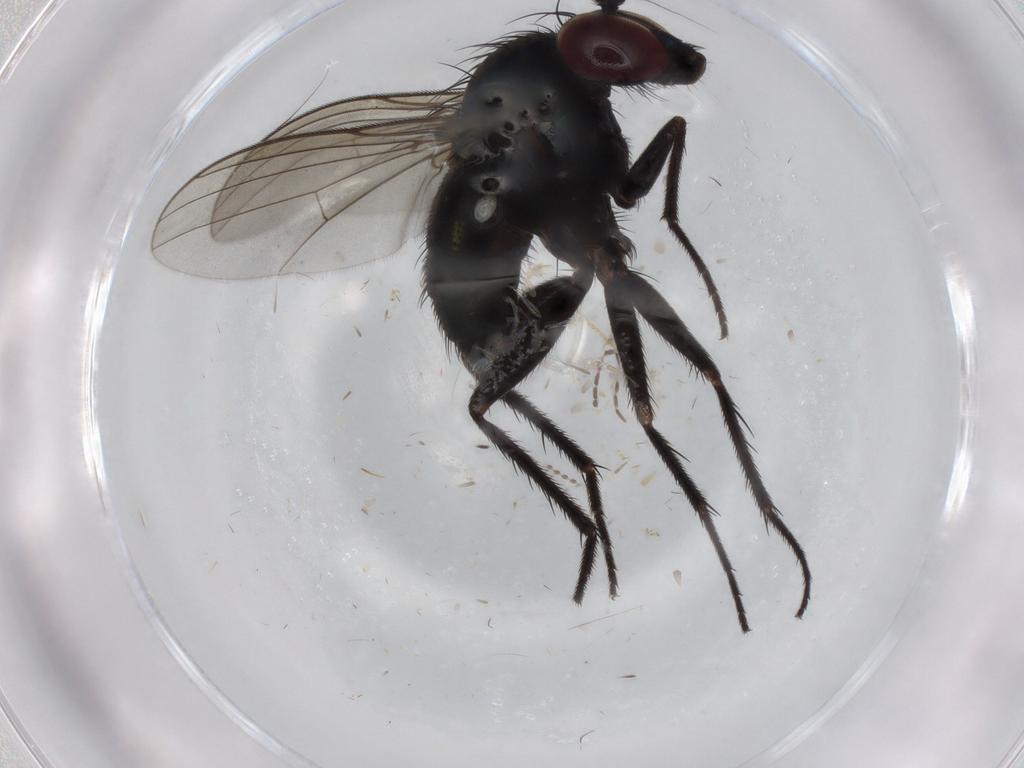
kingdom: Animalia
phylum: Arthropoda
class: Insecta
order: Diptera
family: Dolichopodidae
